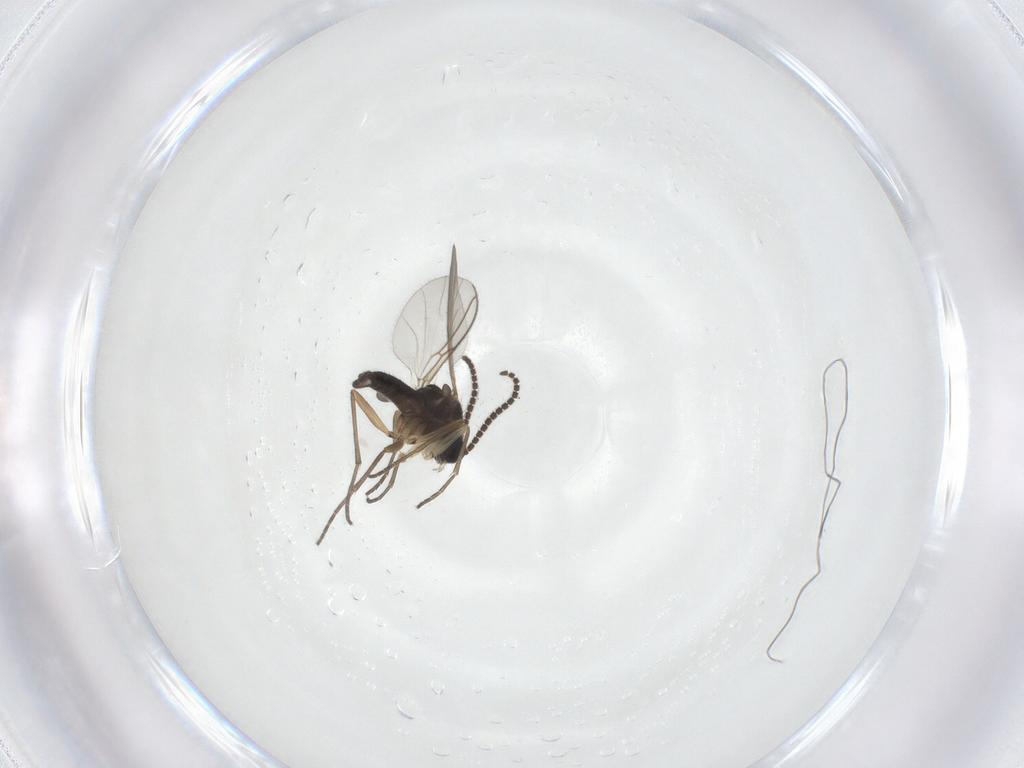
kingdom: Animalia
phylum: Arthropoda
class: Insecta
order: Diptera
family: Sciaridae
